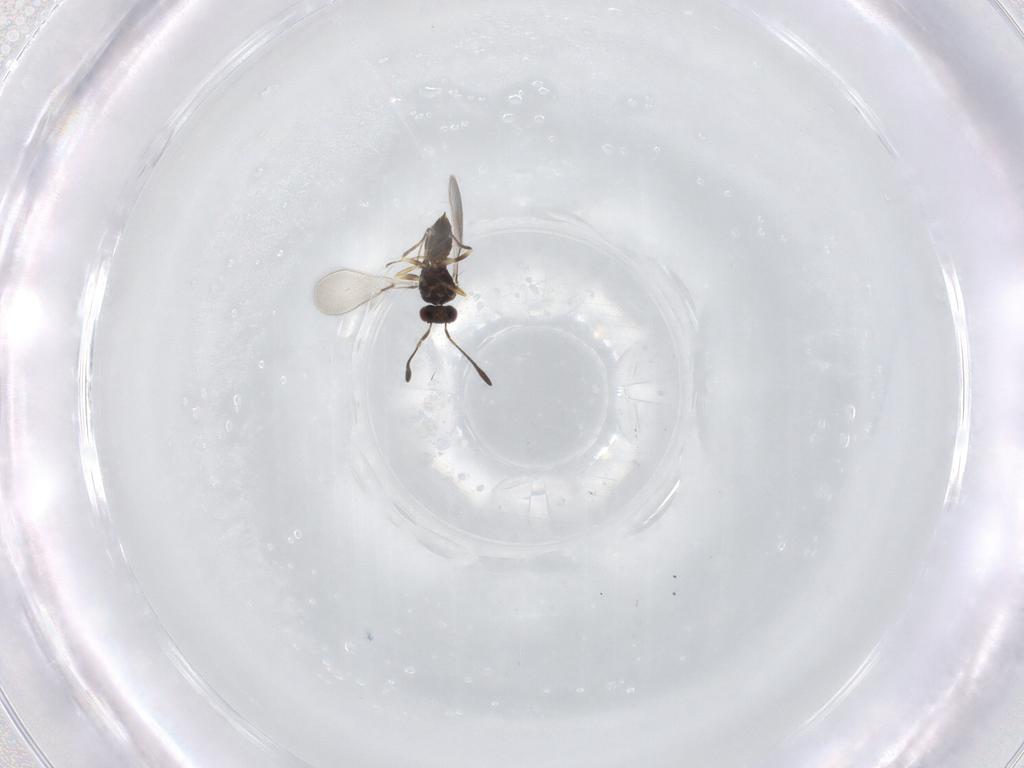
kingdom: Animalia
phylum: Arthropoda
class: Insecta
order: Hymenoptera
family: Mymaridae
